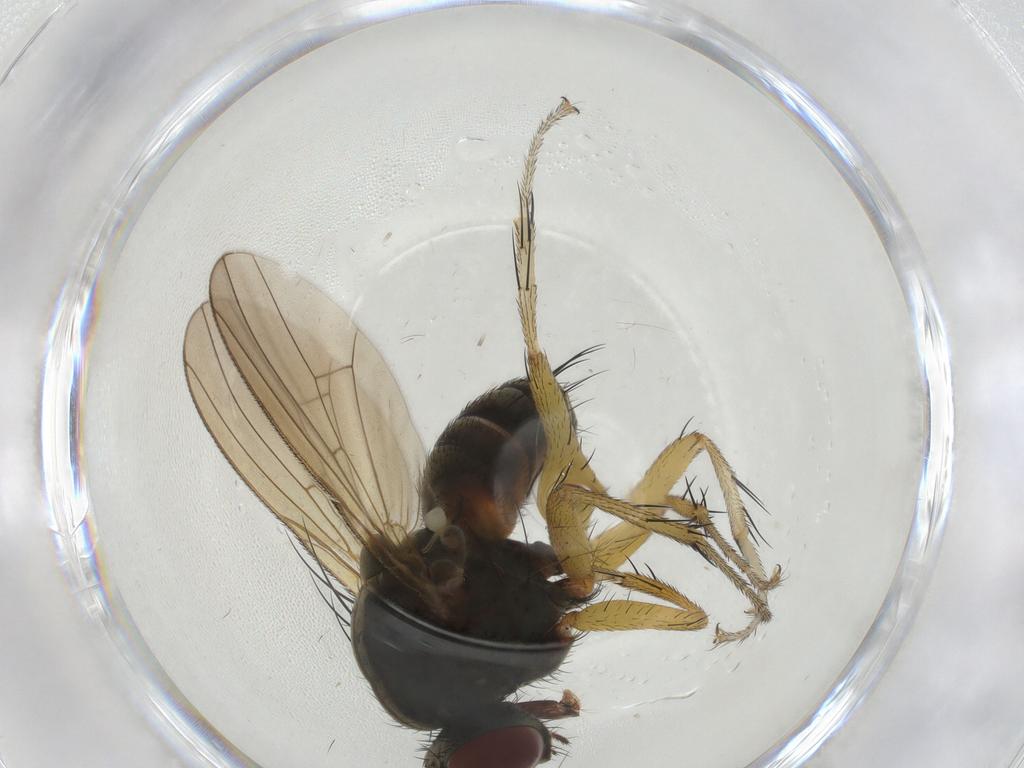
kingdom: Animalia
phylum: Arthropoda
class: Insecta
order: Diptera
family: Muscidae
